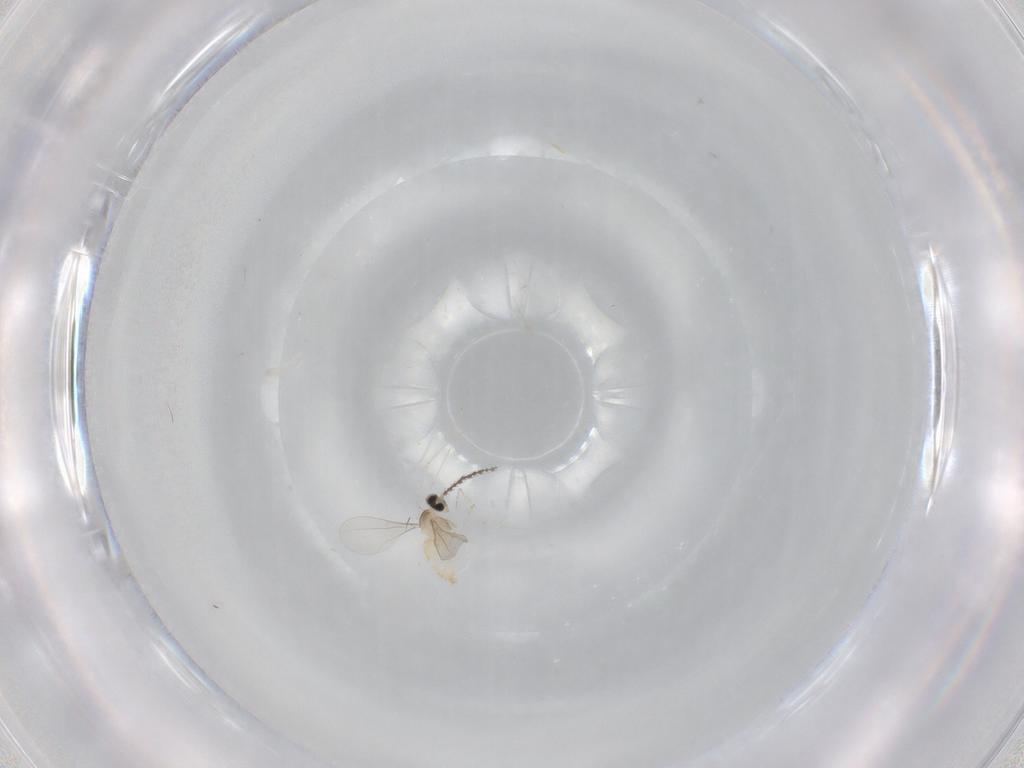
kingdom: Animalia
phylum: Arthropoda
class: Insecta
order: Diptera
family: Cecidomyiidae
